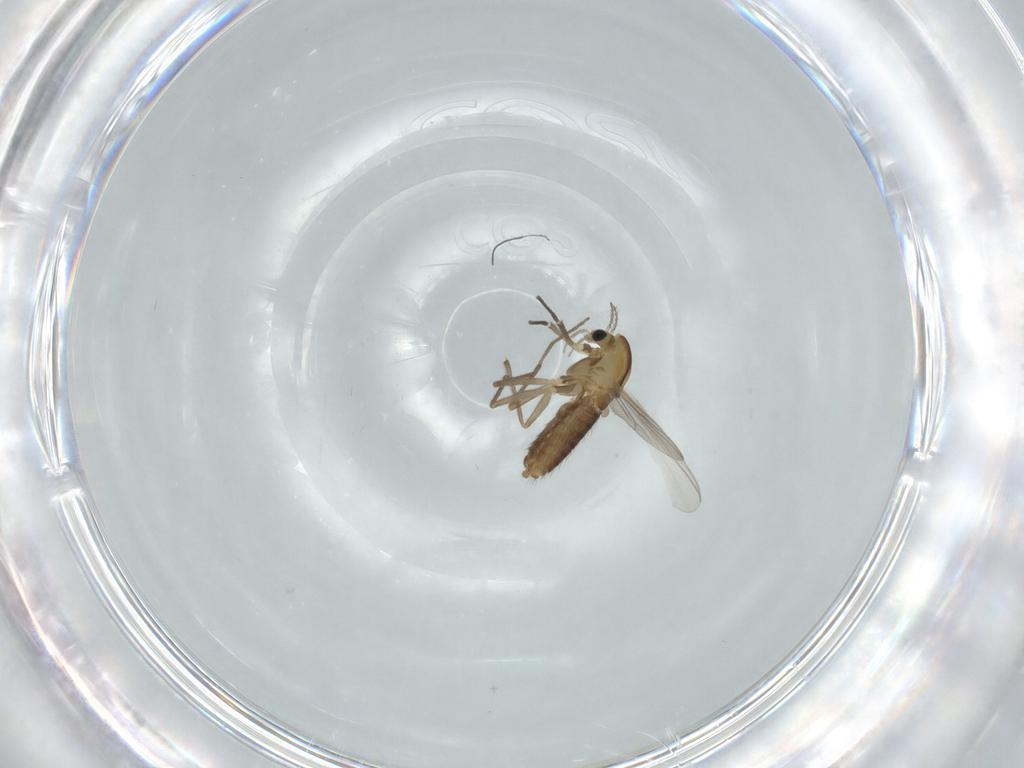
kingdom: Animalia
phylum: Arthropoda
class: Insecta
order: Diptera
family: Chironomidae
